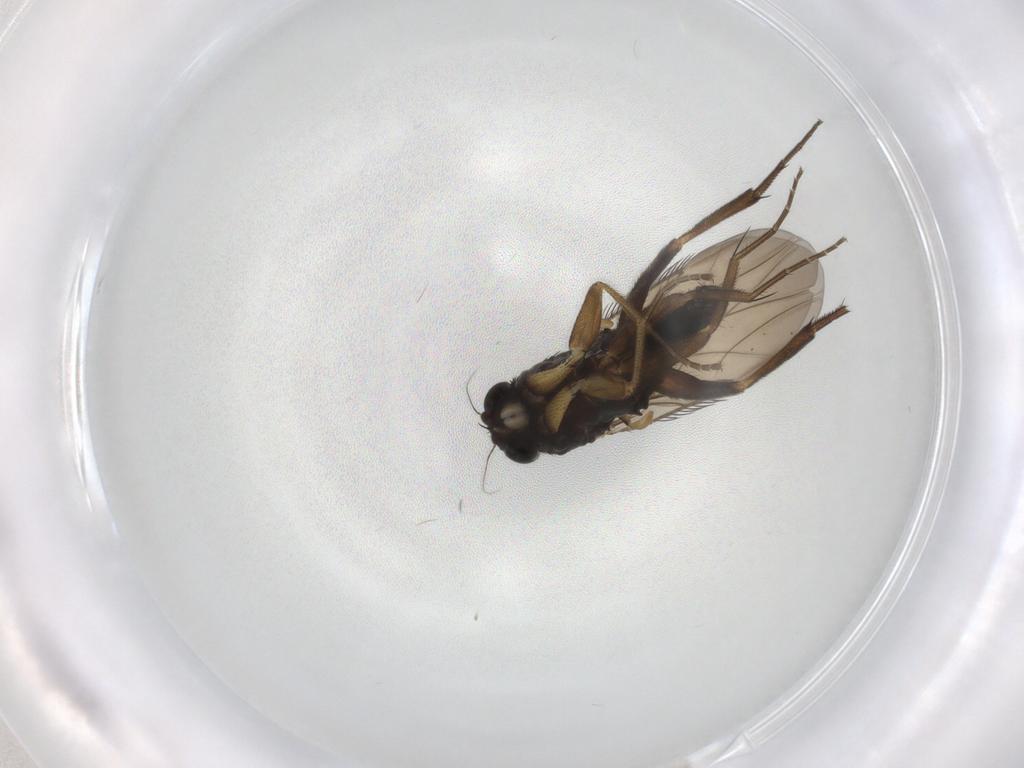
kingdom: Animalia
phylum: Arthropoda
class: Insecta
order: Diptera
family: Phoridae
